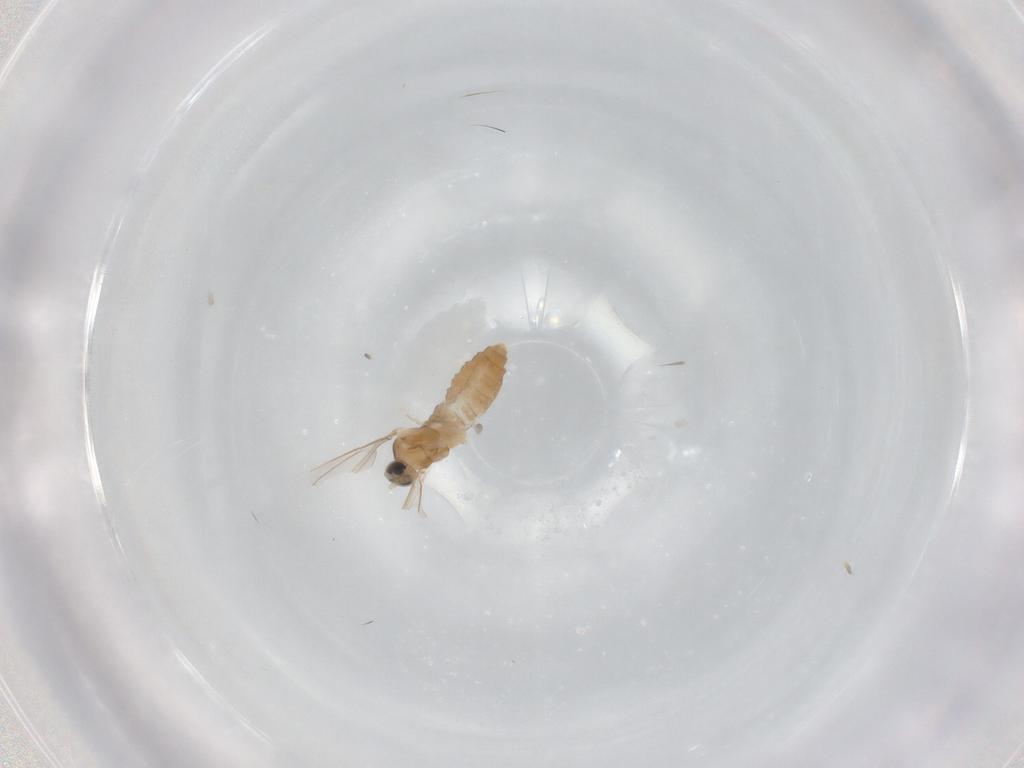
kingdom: Animalia
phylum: Arthropoda
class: Insecta
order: Diptera
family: Cecidomyiidae
